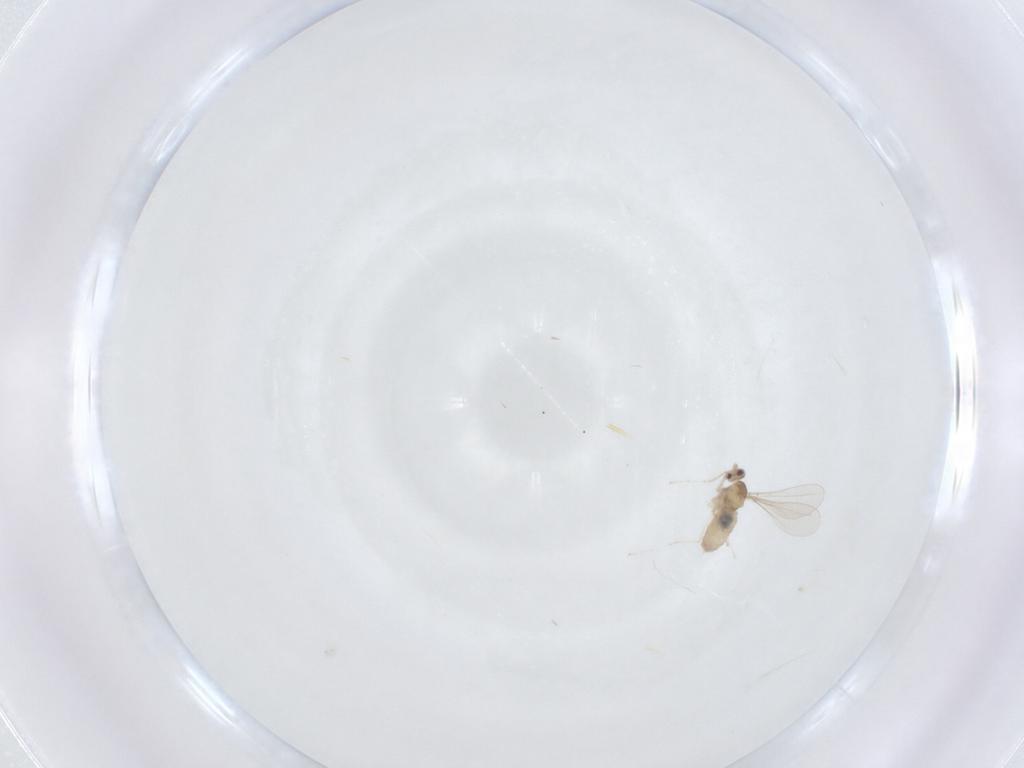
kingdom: Animalia
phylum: Arthropoda
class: Insecta
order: Diptera
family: Cecidomyiidae
